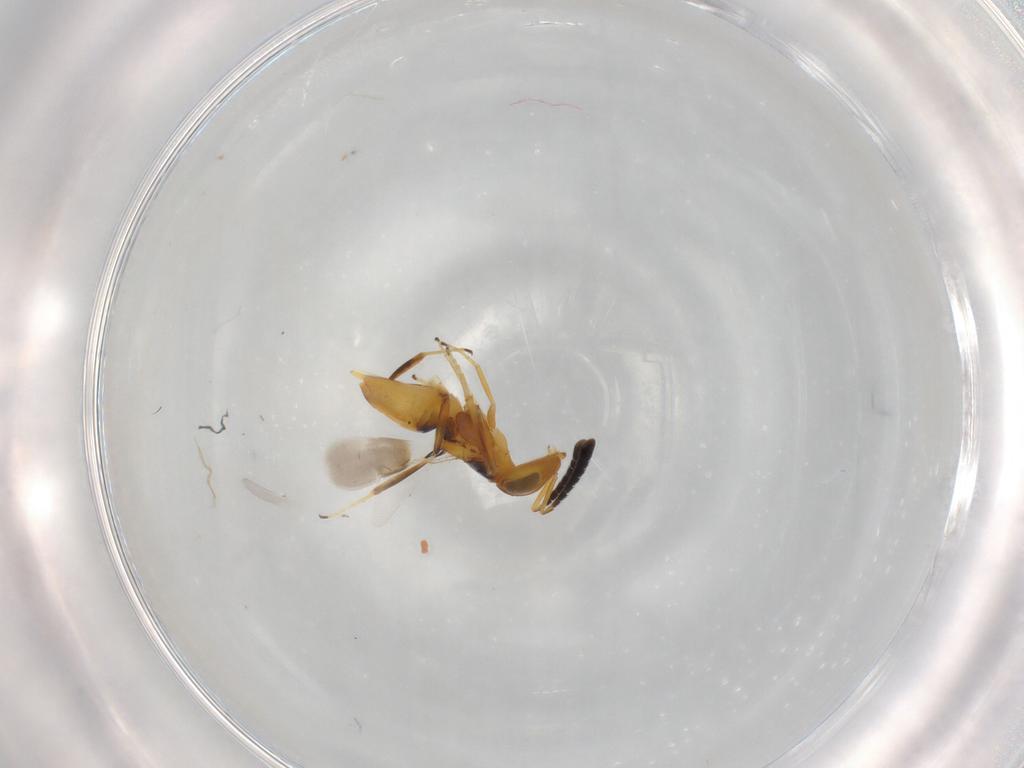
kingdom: Animalia
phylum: Arthropoda
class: Insecta
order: Hymenoptera
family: Encyrtidae
